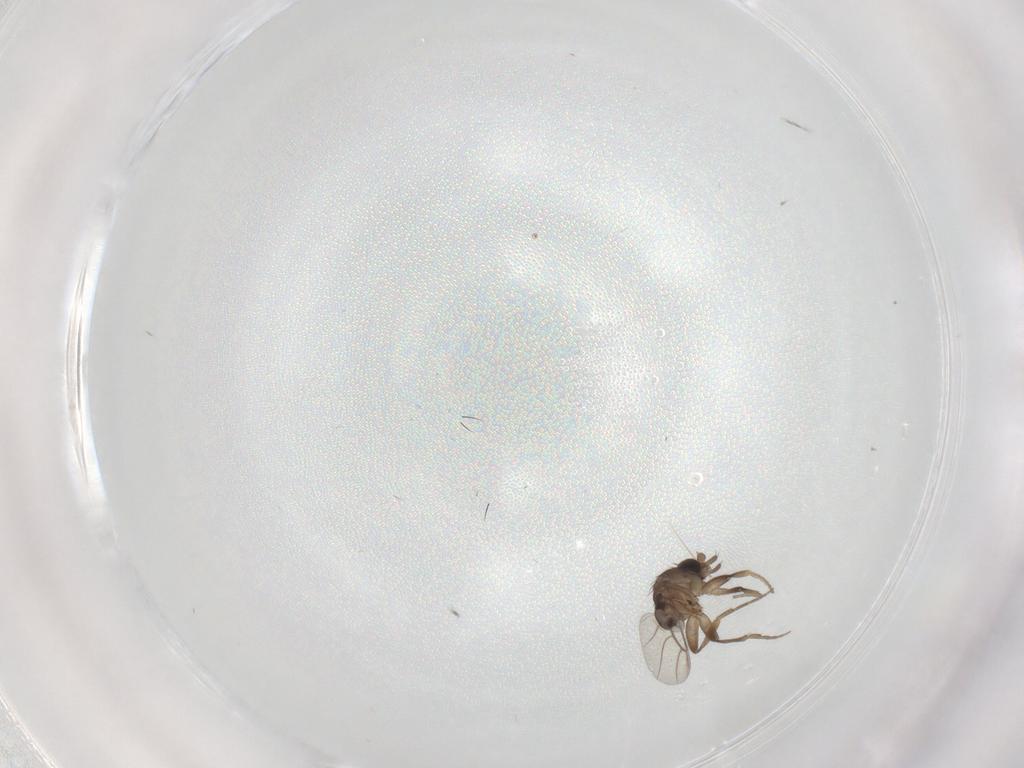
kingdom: Animalia
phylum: Arthropoda
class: Insecta
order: Diptera
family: Phoridae
